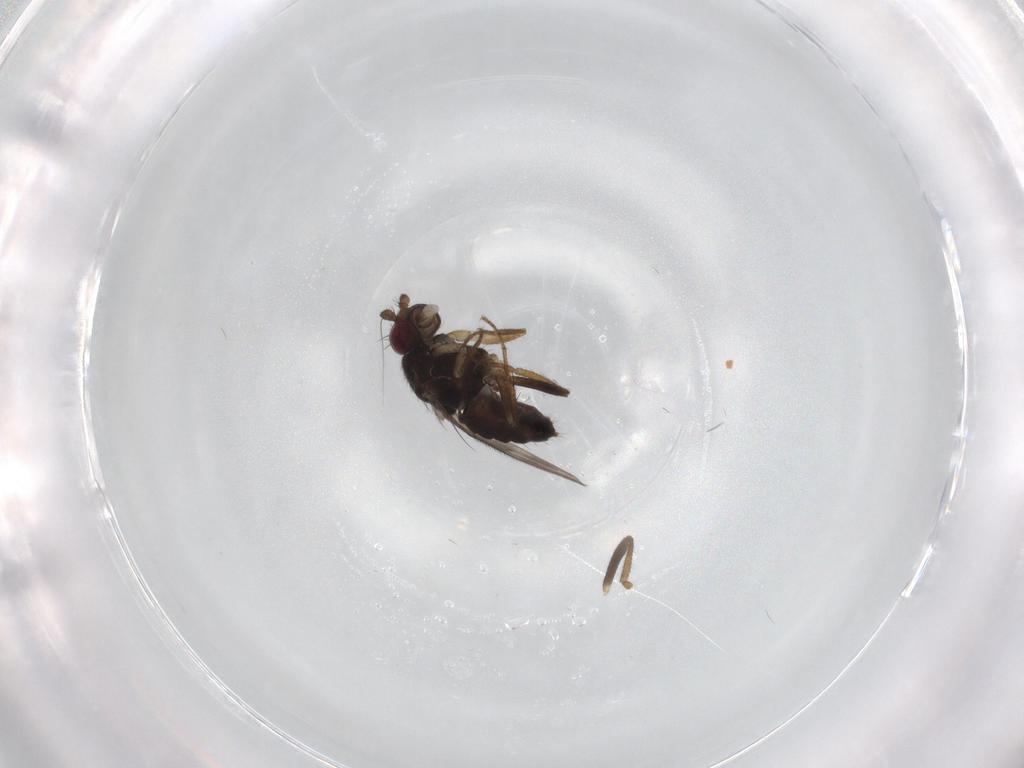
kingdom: Animalia
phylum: Arthropoda
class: Insecta
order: Diptera
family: Sphaeroceridae
